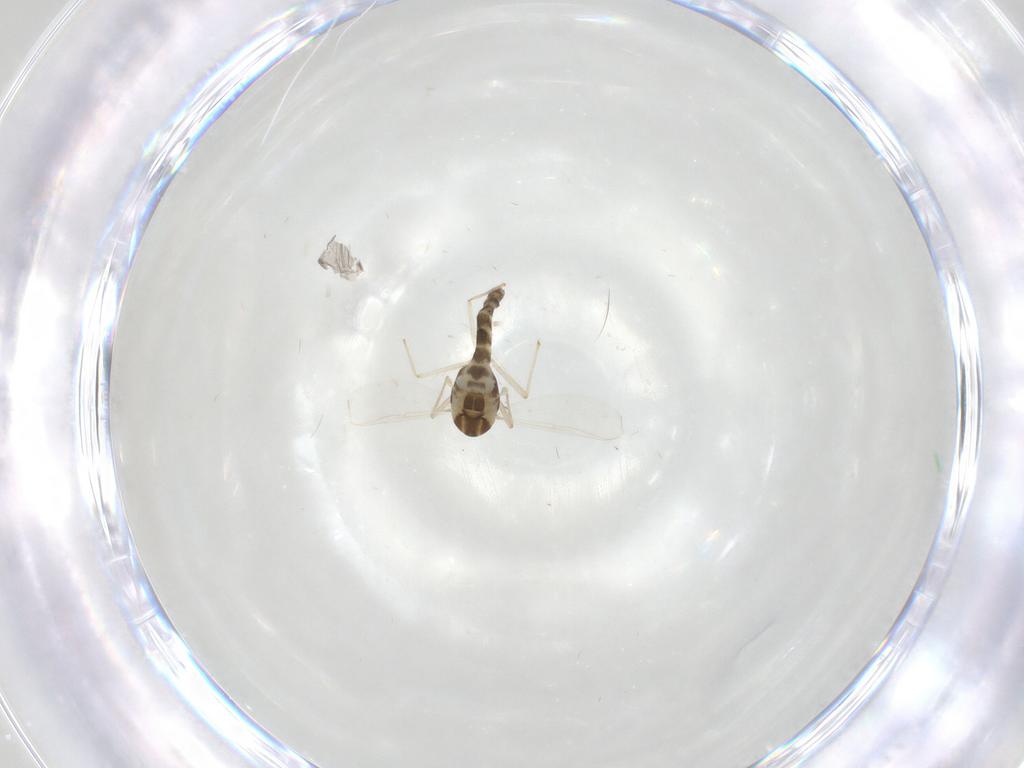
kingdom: Animalia
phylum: Arthropoda
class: Insecta
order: Diptera
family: Chironomidae
